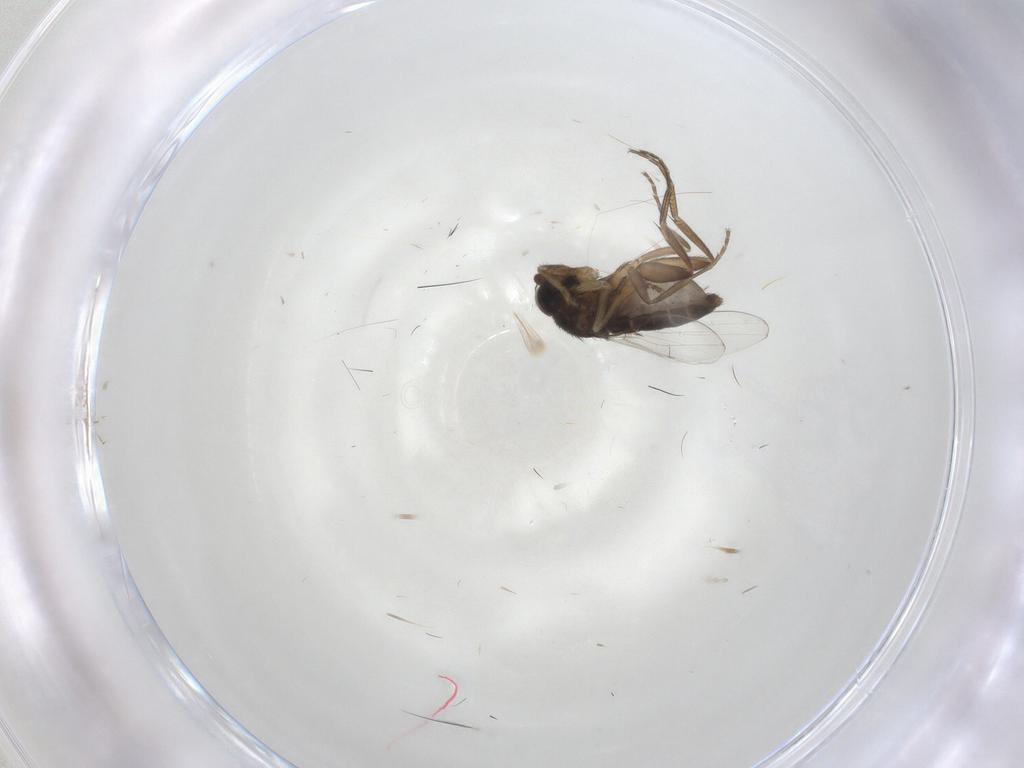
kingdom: Animalia
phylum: Arthropoda
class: Insecta
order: Diptera
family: Phoridae
